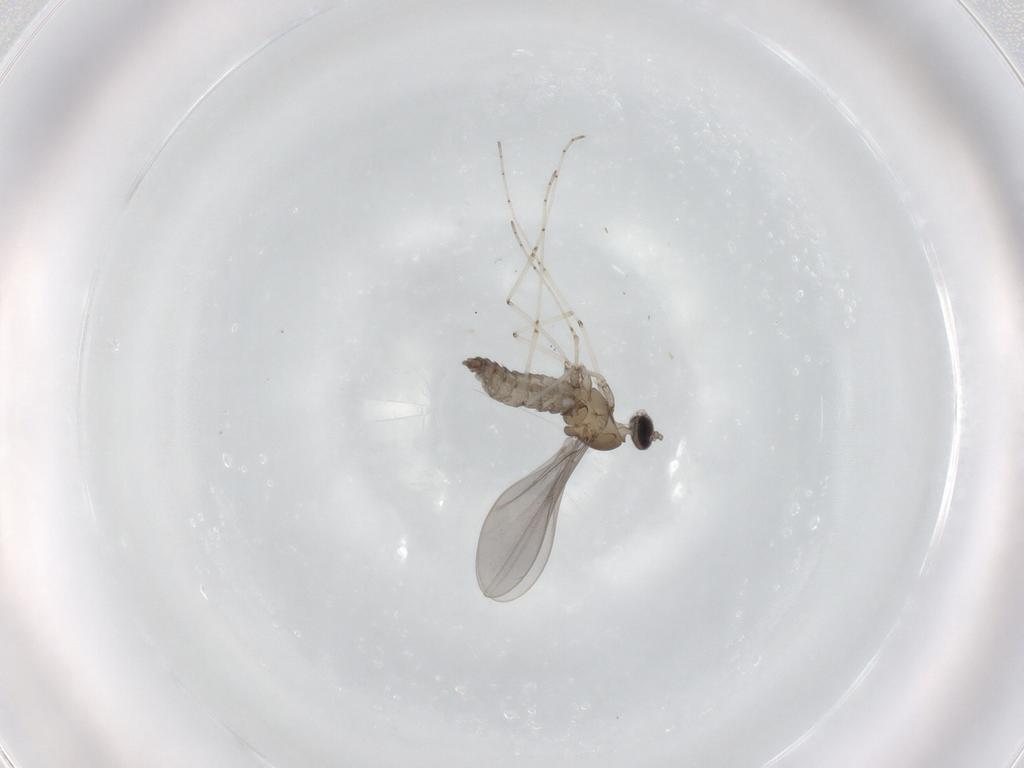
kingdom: Animalia
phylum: Arthropoda
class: Insecta
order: Diptera
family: Cecidomyiidae
